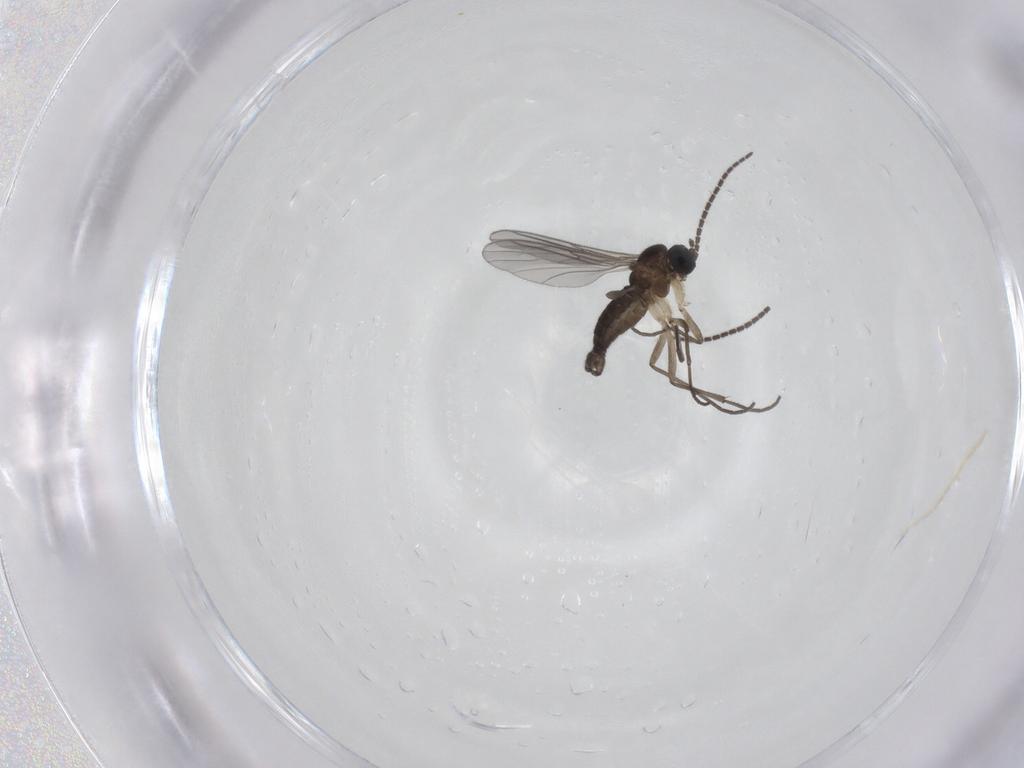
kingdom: Animalia
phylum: Arthropoda
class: Insecta
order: Diptera
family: Sciaridae
